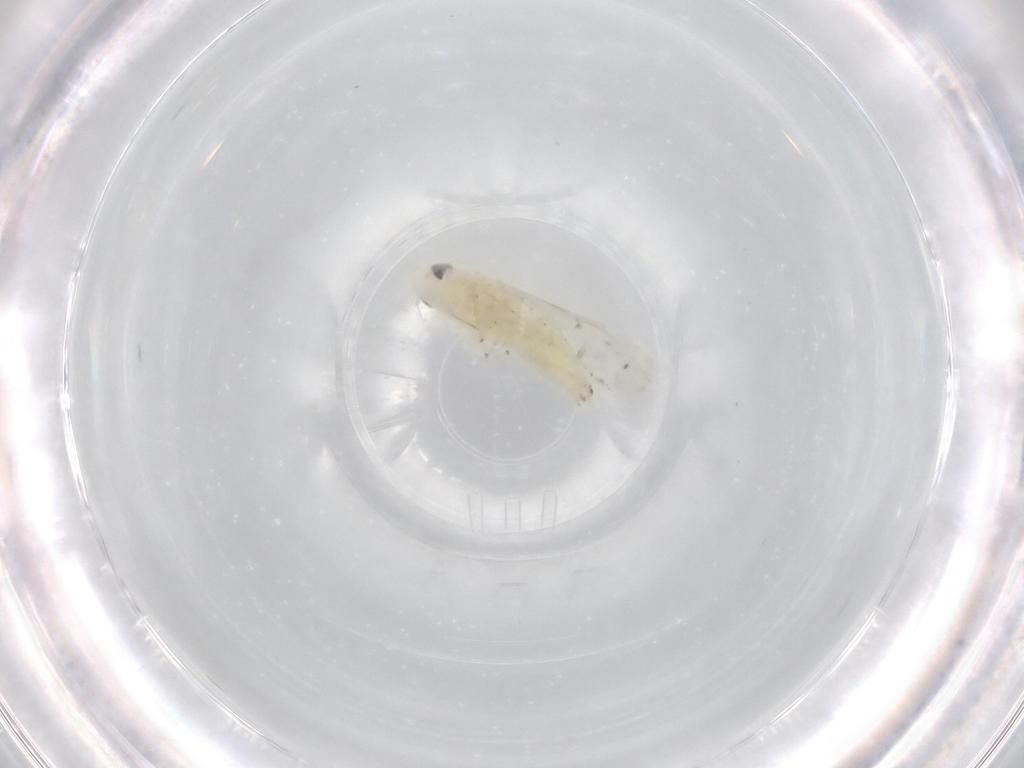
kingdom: Animalia
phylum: Arthropoda
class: Insecta
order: Hemiptera
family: Cicadellidae
